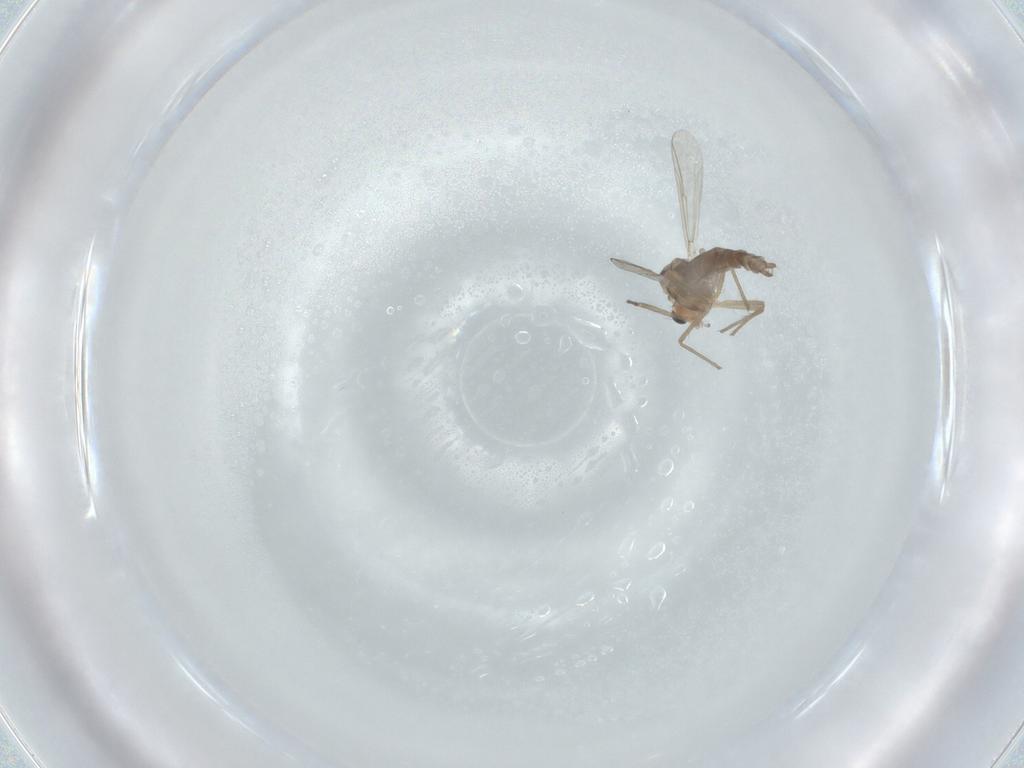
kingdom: Animalia
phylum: Arthropoda
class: Insecta
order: Diptera
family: Chironomidae
